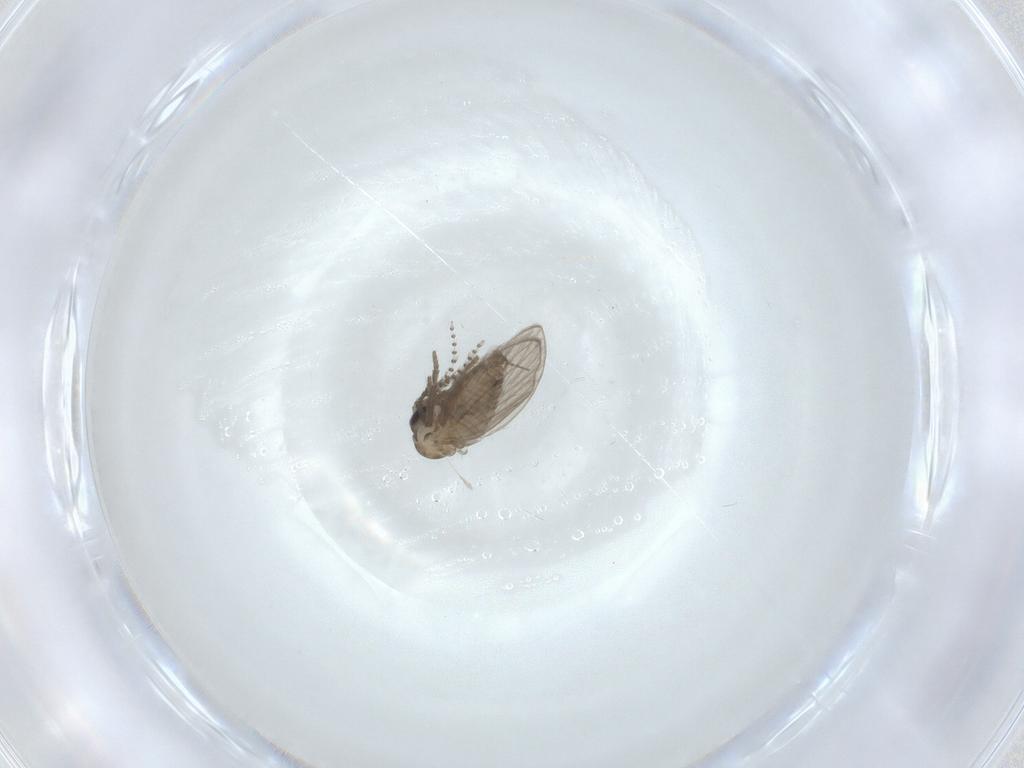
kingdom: Animalia
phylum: Arthropoda
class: Insecta
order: Diptera
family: Psychodidae
